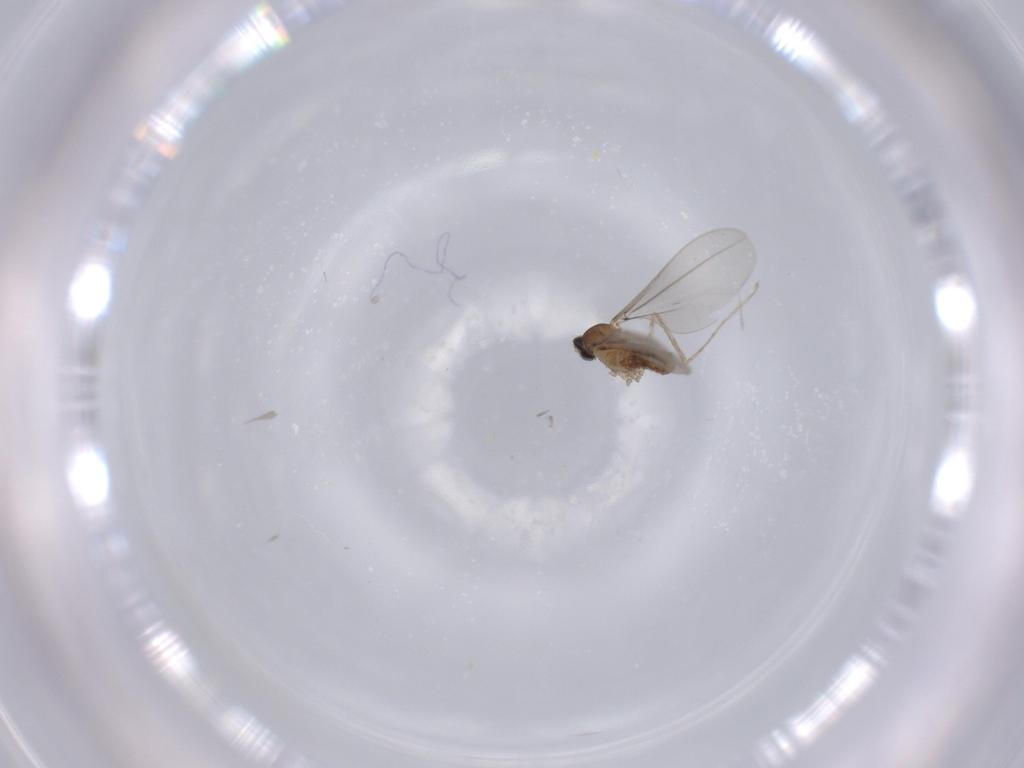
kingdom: Animalia
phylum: Arthropoda
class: Insecta
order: Diptera
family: Cecidomyiidae
